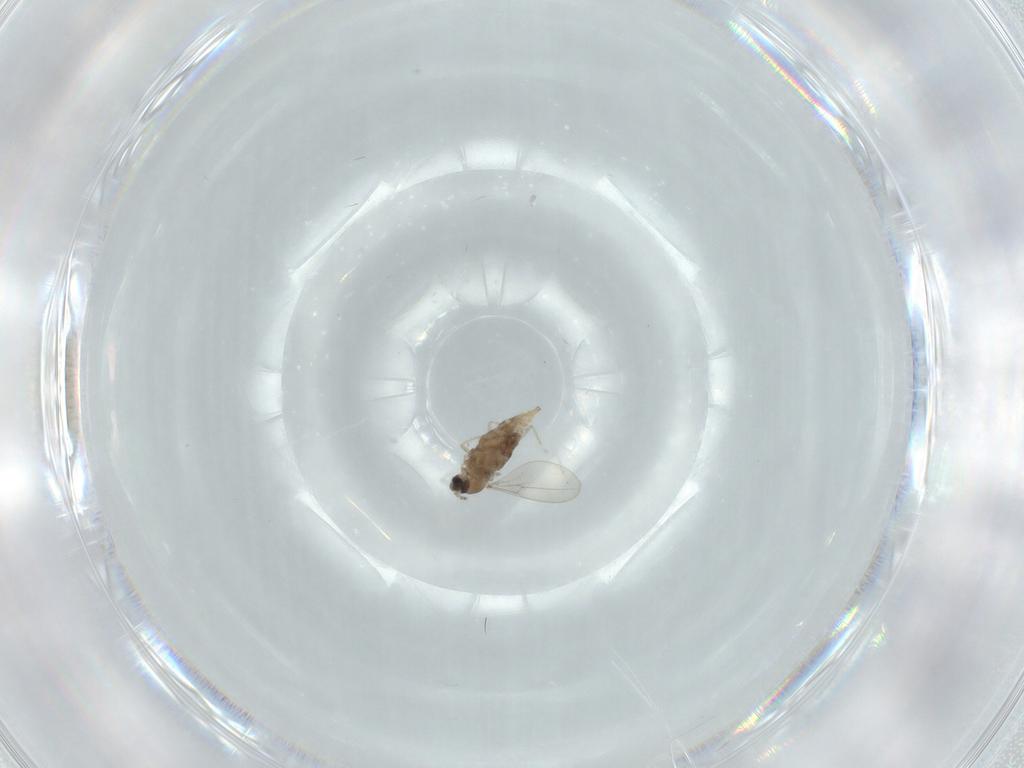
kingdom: Animalia
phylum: Arthropoda
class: Insecta
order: Diptera
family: Cecidomyiidae
